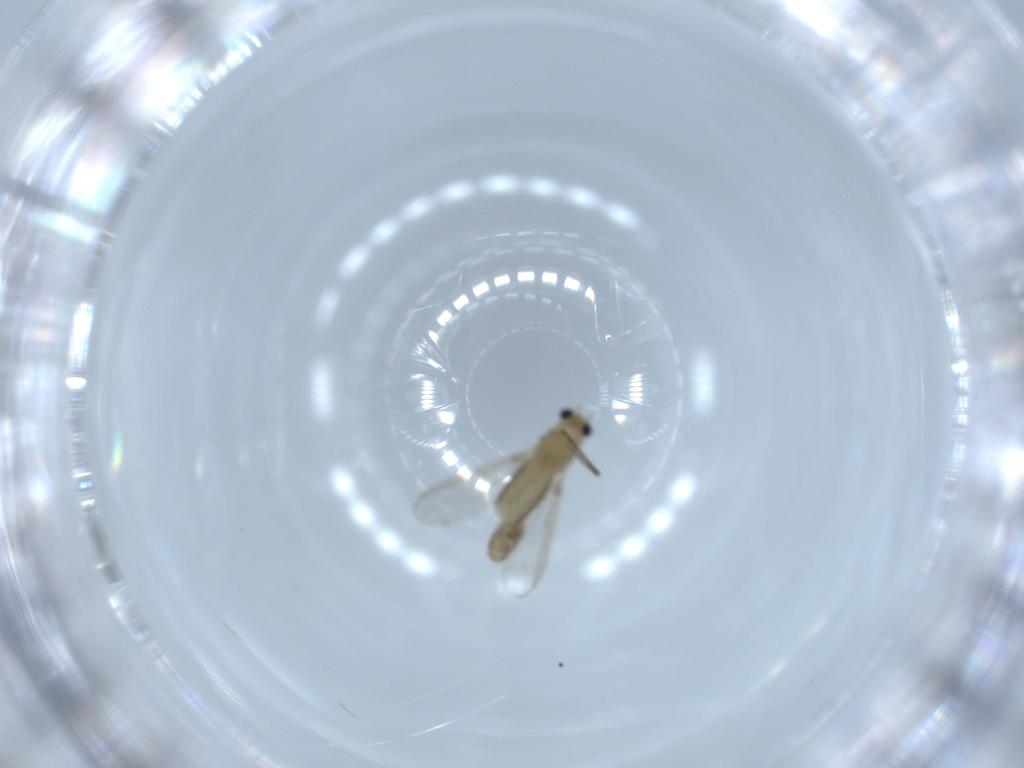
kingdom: Animalia
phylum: Arthropoda
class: Insecta
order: Diptera
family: Chironomidae
